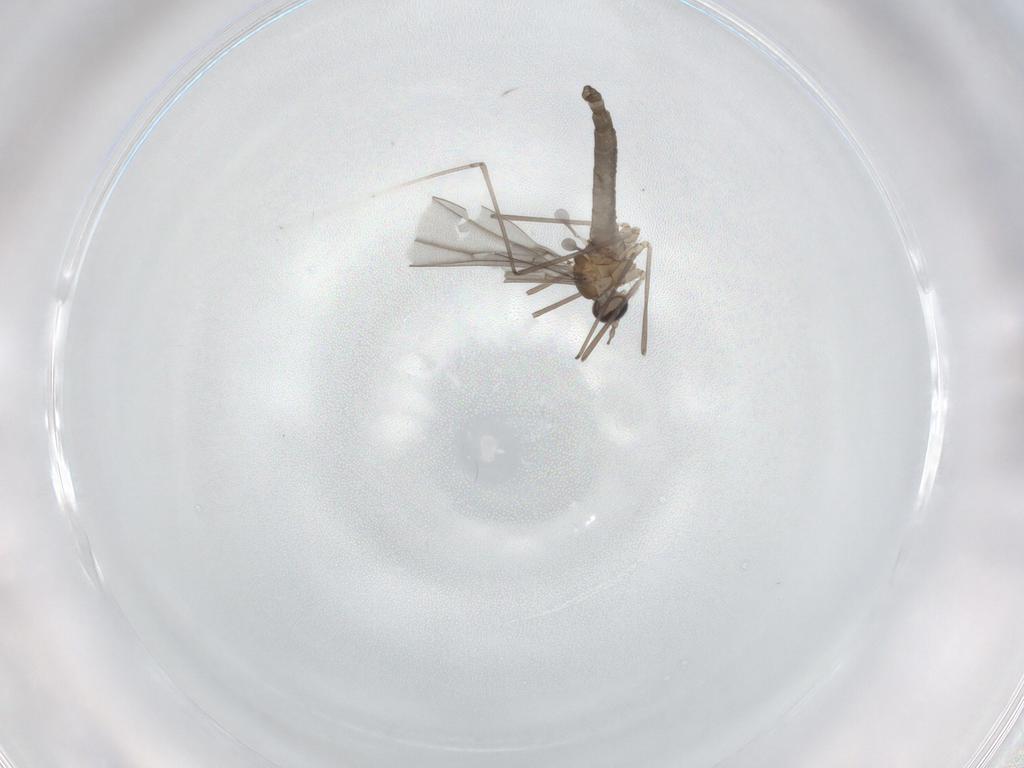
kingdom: Animalia
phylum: Arthropoda
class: Insecta
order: Diptera
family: Cecidomyiidae
